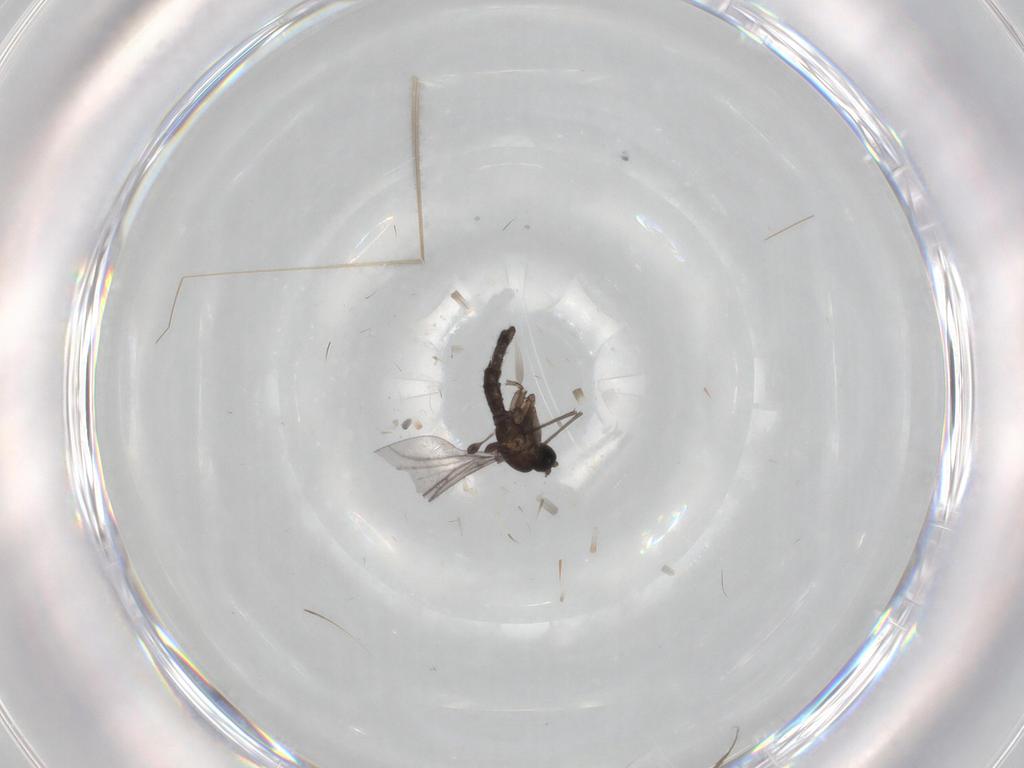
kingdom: Animalia
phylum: Arthropoda
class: Insecta
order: Diptera
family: Sciaridae
